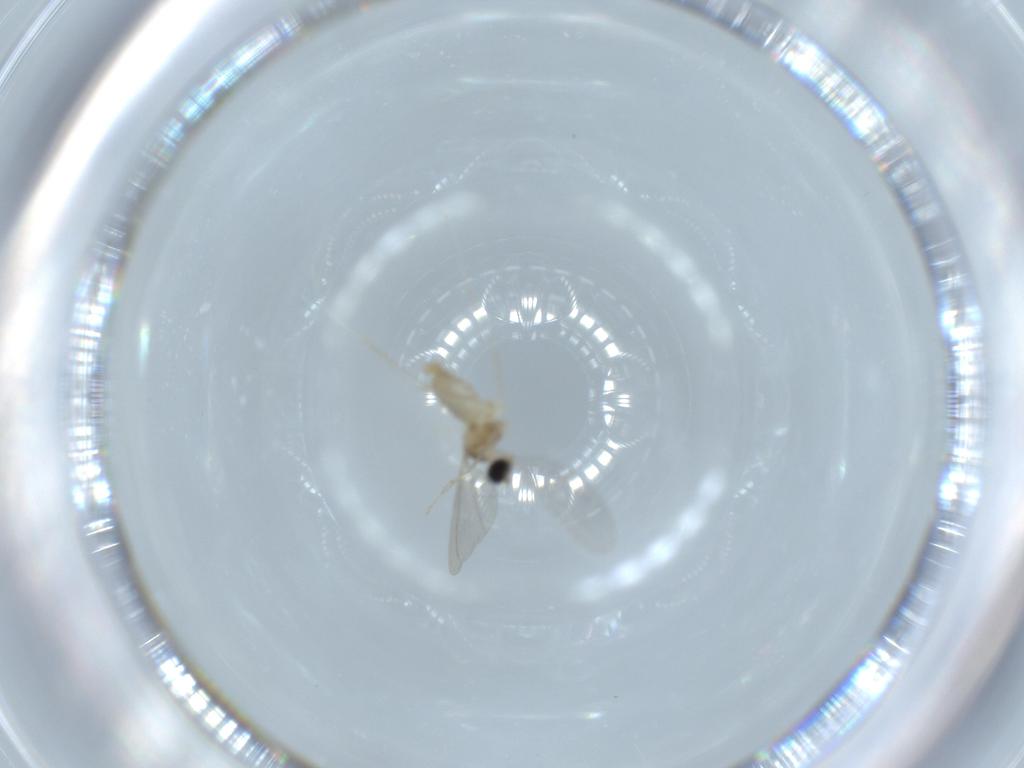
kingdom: Animalia
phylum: Arthropoda
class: Insecta
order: Diptera
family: Cecidomyiidae
